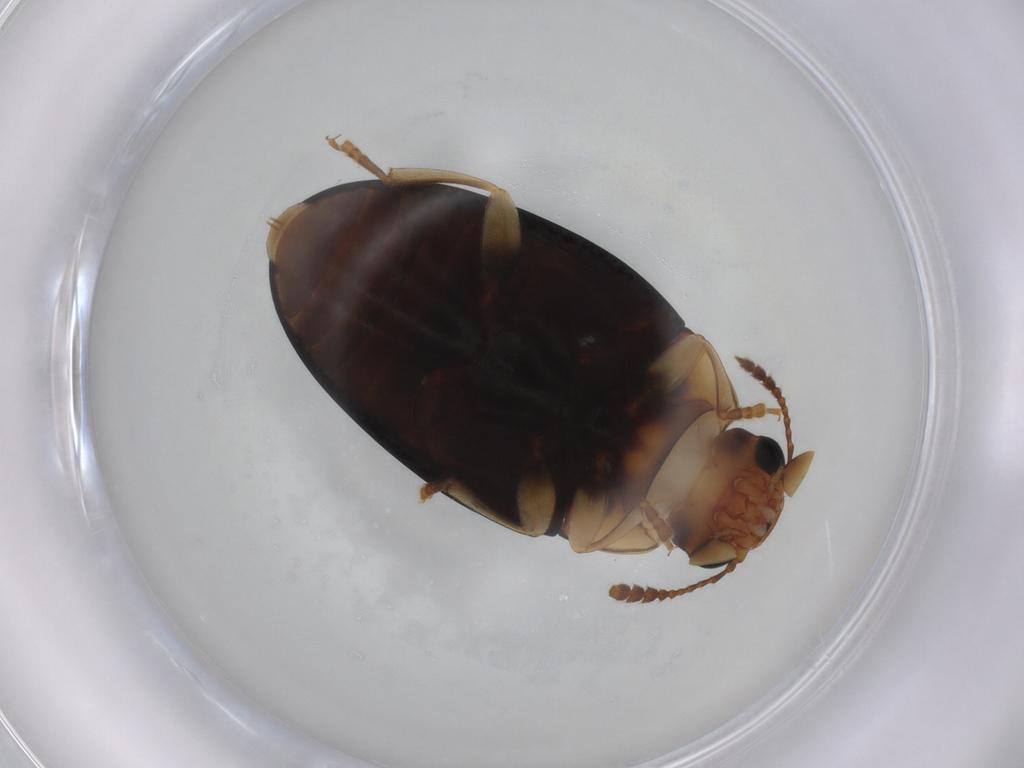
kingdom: Animalia
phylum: Arthropoda
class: Insecta
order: Coleoptera
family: Erotylidae
